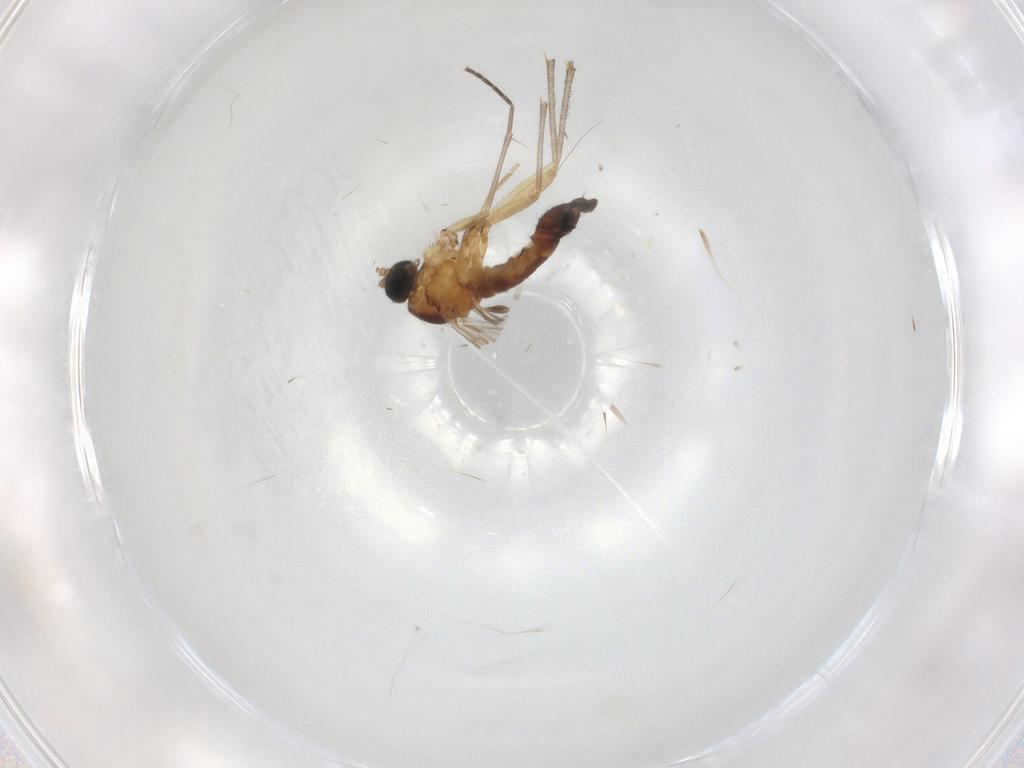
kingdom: Animalia
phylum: Arthropoda
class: Insecta
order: Diptera
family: Sciaridae
